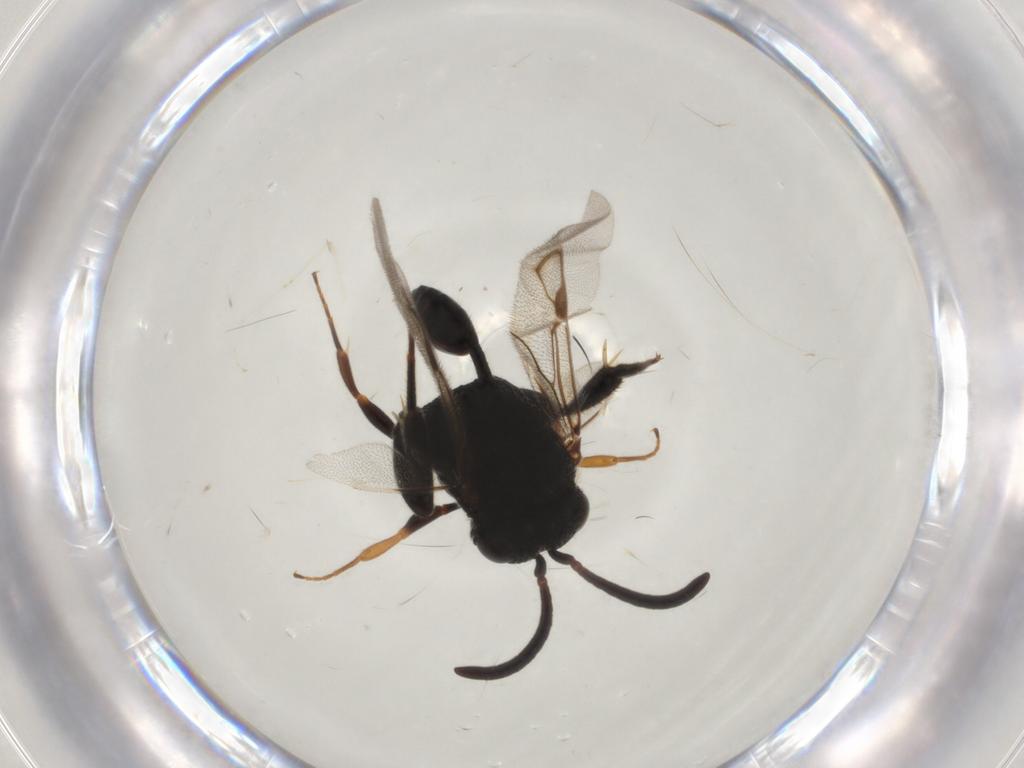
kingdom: Animalia
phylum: Arthropoda
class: Insecta
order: Hymenoptera
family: Evaniidae
